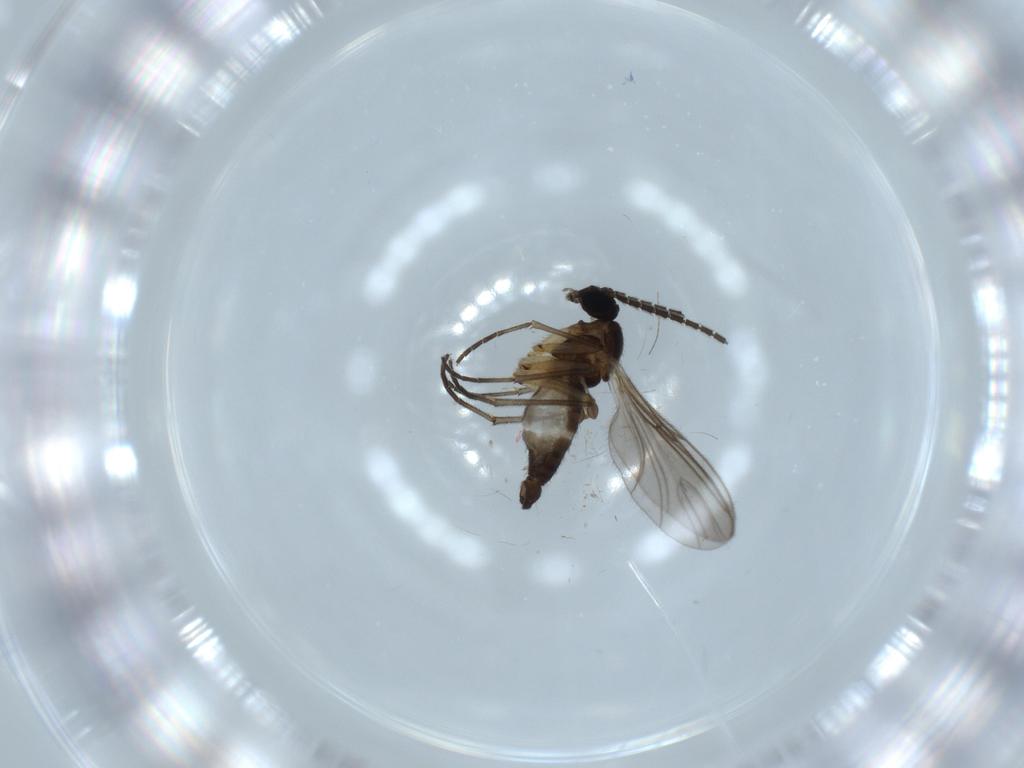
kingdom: Animalia
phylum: Arthropoda
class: Insecta
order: Diptera
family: Sciaridae
